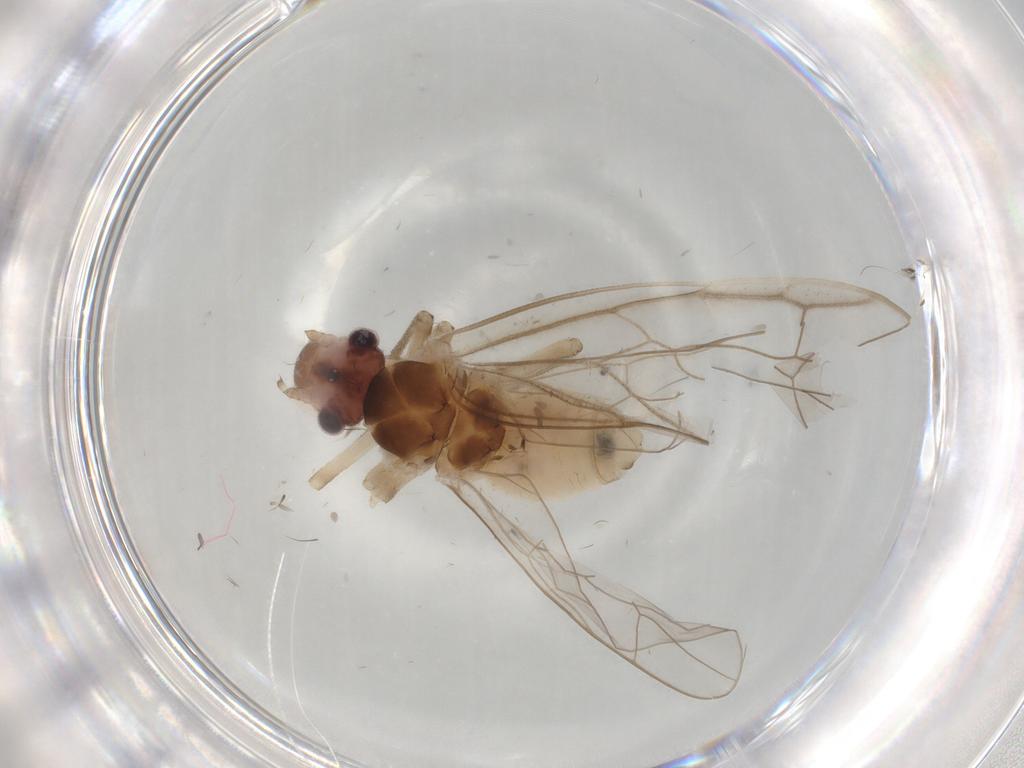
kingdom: Animalia
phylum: Arthropoda
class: Insecta
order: Psocodea
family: Stenopsocidae
